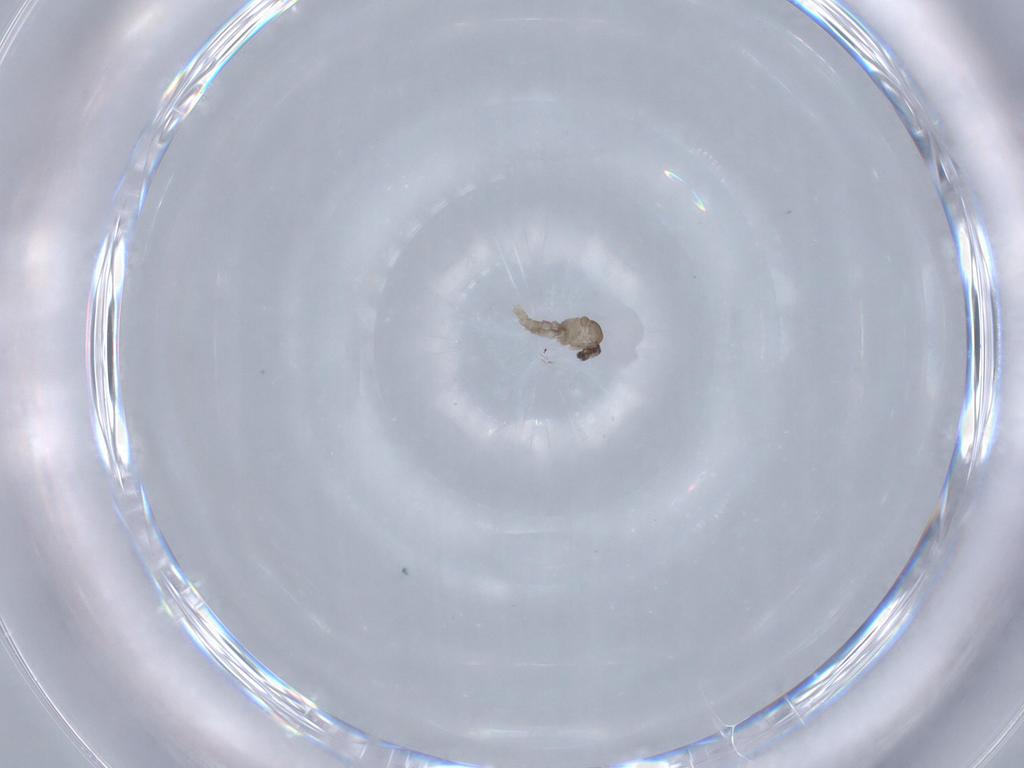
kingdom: Animalia
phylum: Arthropoda
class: Insecta
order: Diptera
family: Cecidomyiidae
